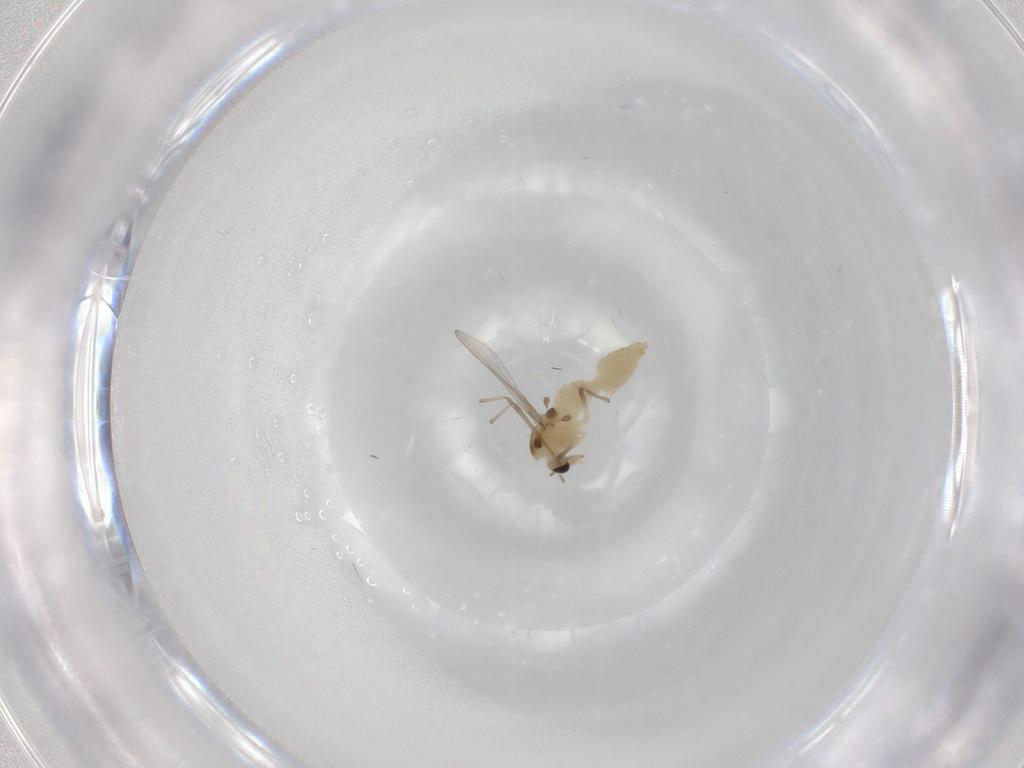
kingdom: Animalia
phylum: Arthropoda
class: Insecta
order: Diptera
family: Chironomidae
